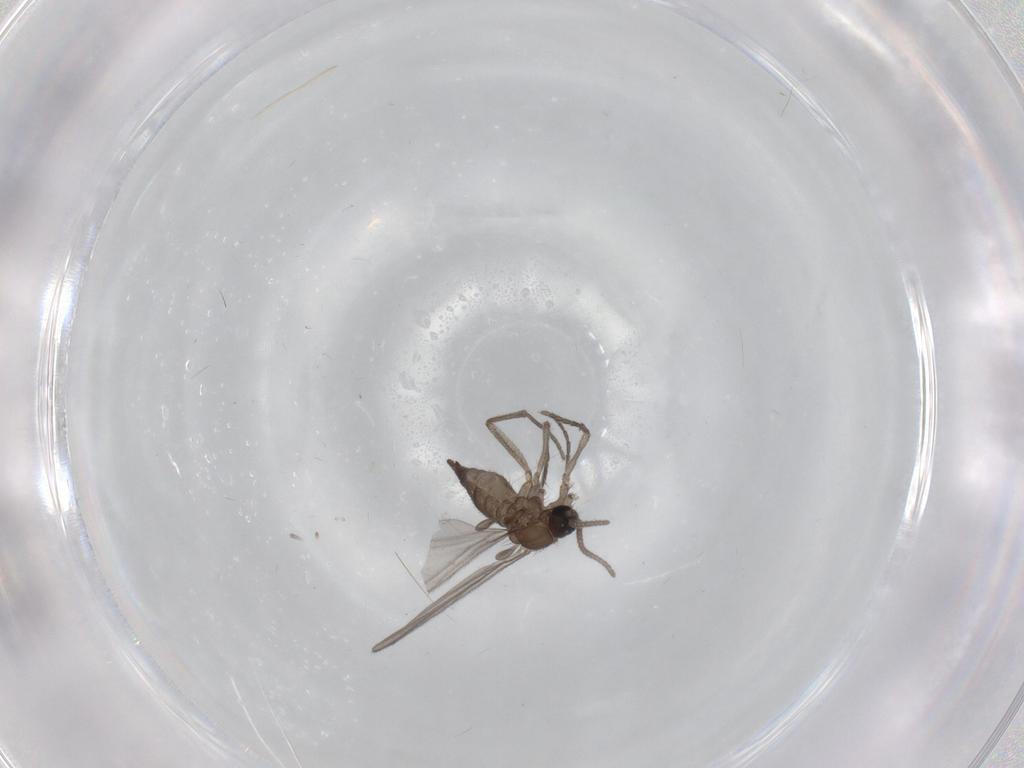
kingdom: Animalia
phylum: Arthropoda
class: Insecta
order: Diptera
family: Sciaridae
